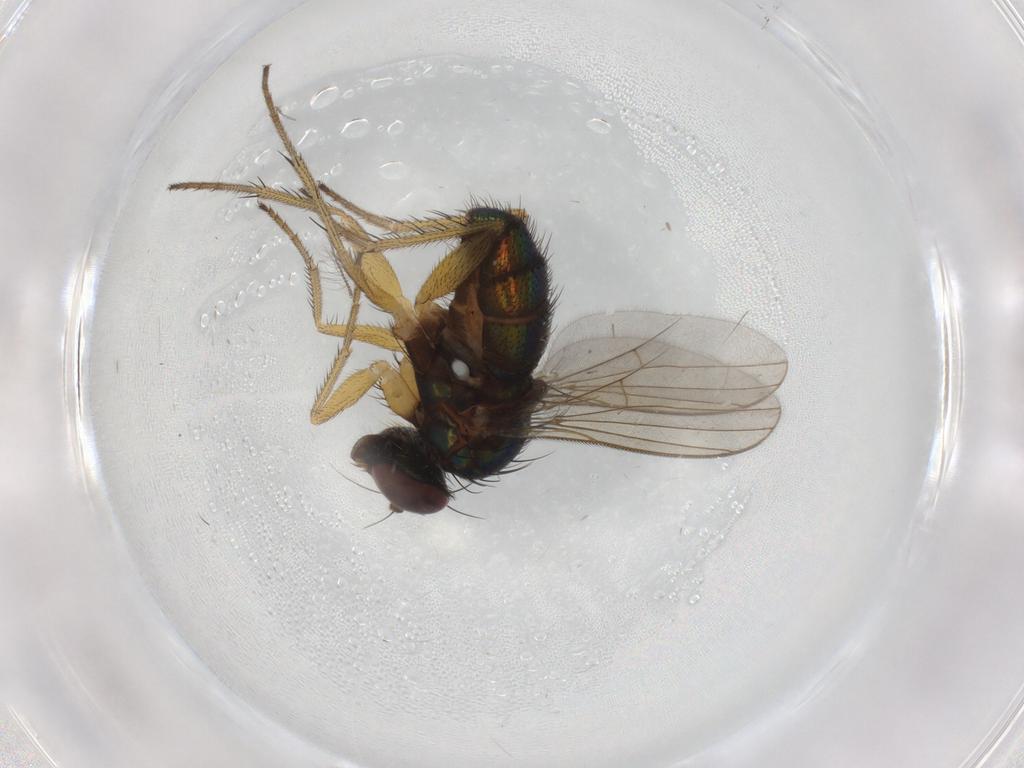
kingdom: Animalia
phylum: Arthropoda
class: Insecta
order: Diptera
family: Dolichopodidae
